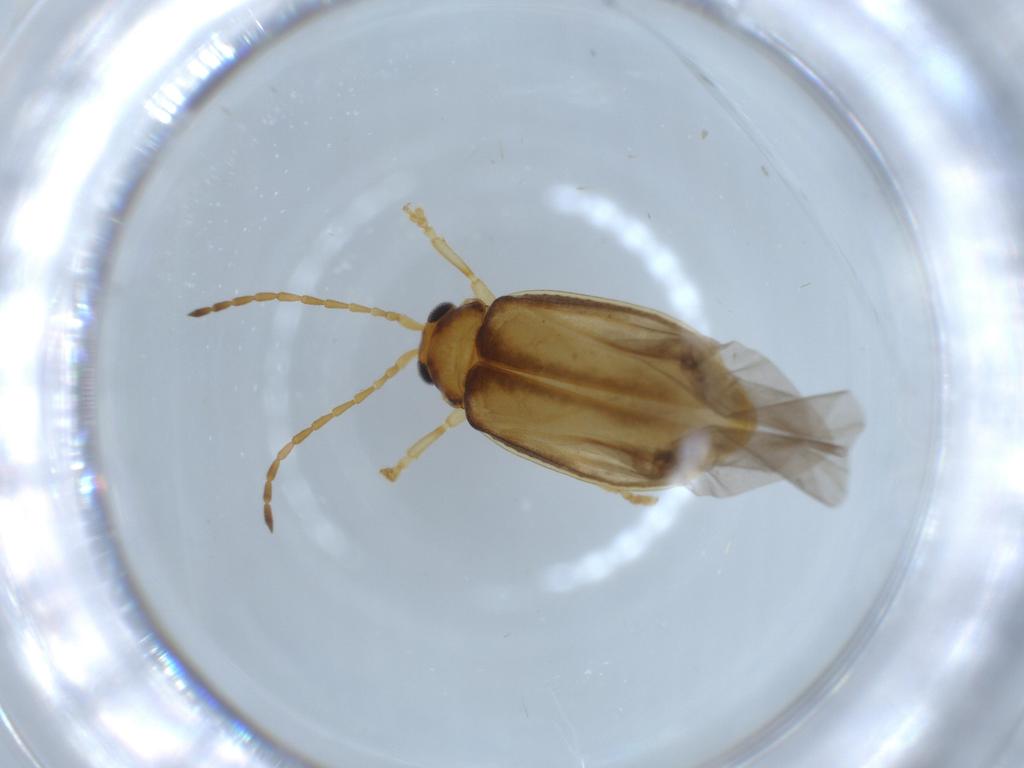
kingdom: Animalia
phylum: Arthropoda
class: Insecta
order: Coleoptera
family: Chrysomelidae
